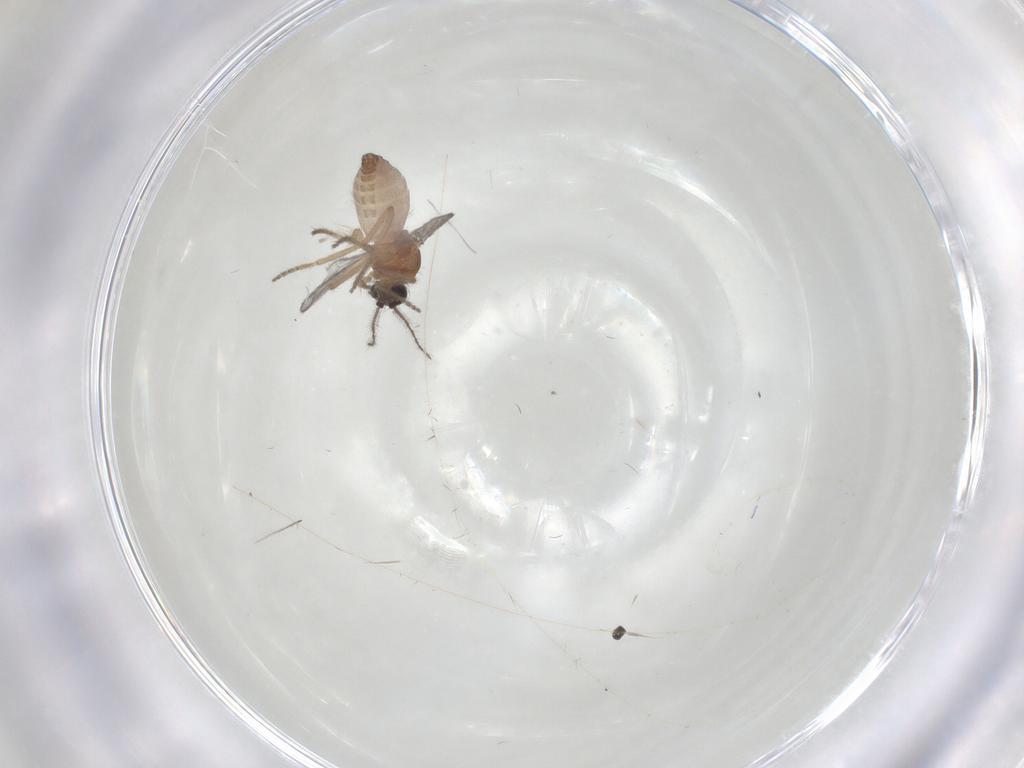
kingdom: Animalia
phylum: Arthropoda
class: Insecta
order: Diptera
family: Ceratopogonidae
